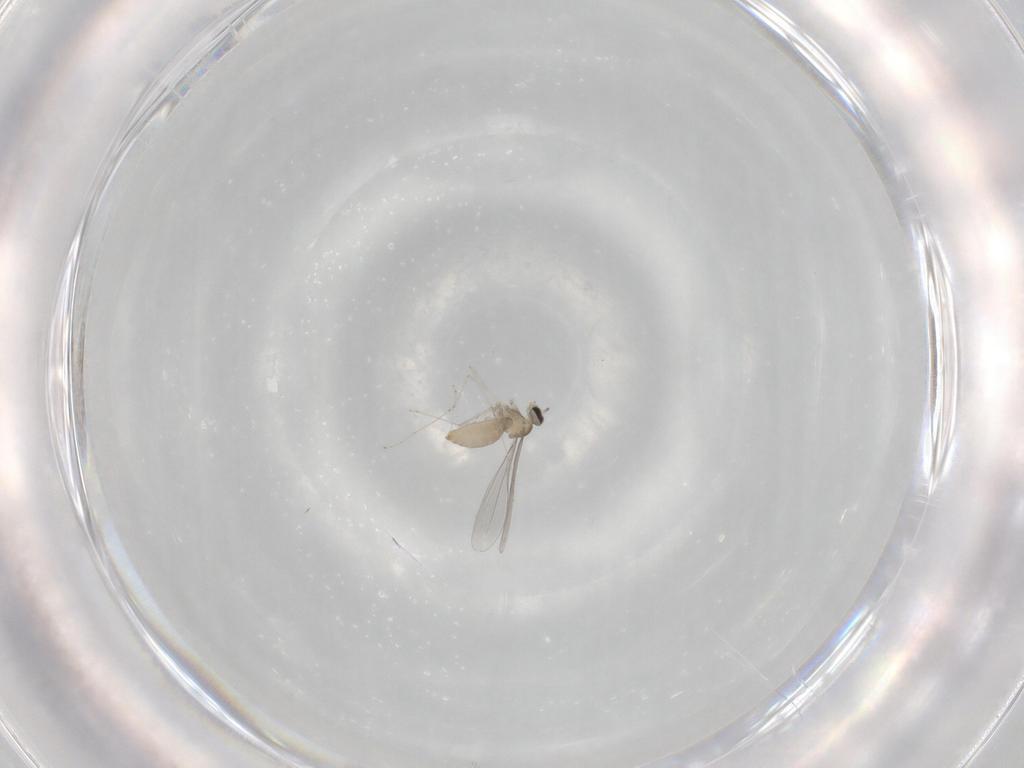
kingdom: Animalia
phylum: Arthropoda
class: Insecta
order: Diptera
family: Cecidomyiidae
